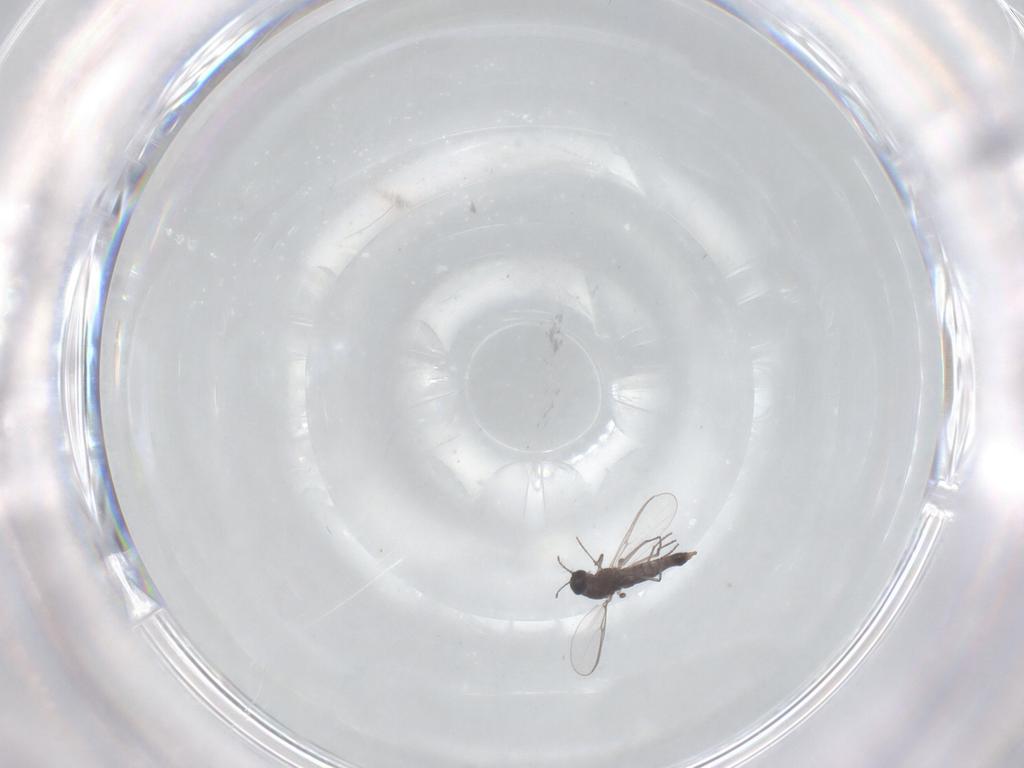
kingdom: Animalia
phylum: Arthropoda
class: Insecta
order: Diptera
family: Chironomidae
